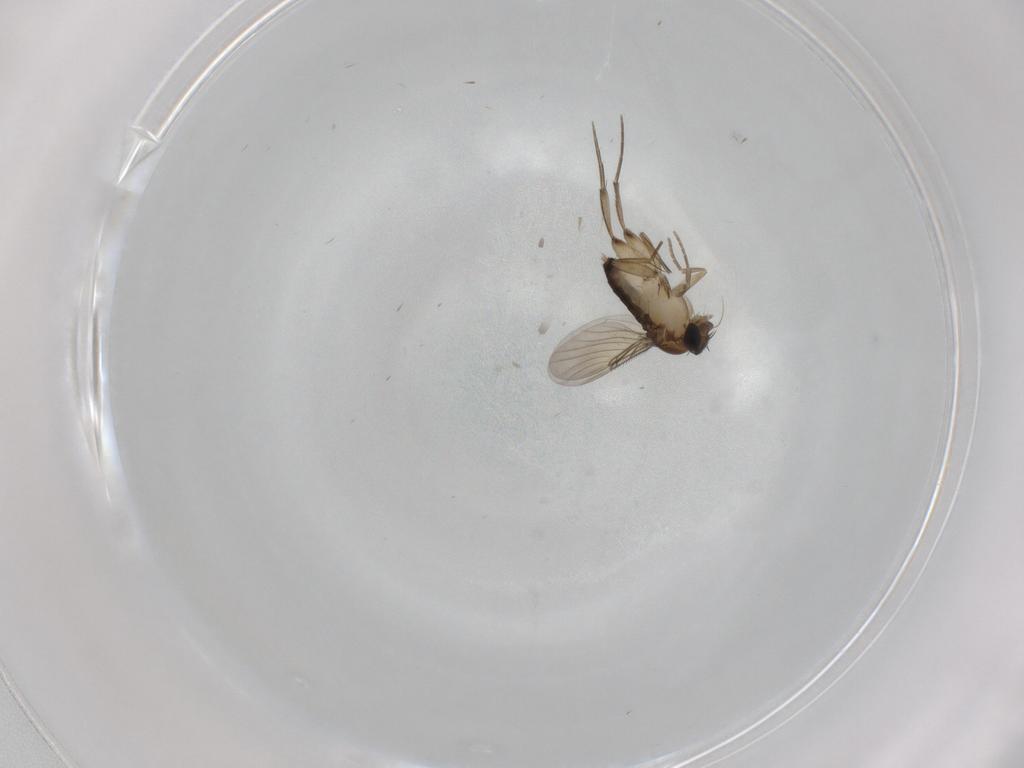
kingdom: Animalia
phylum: Arthropoda
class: Insecta
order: Diptera
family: Phoridae
